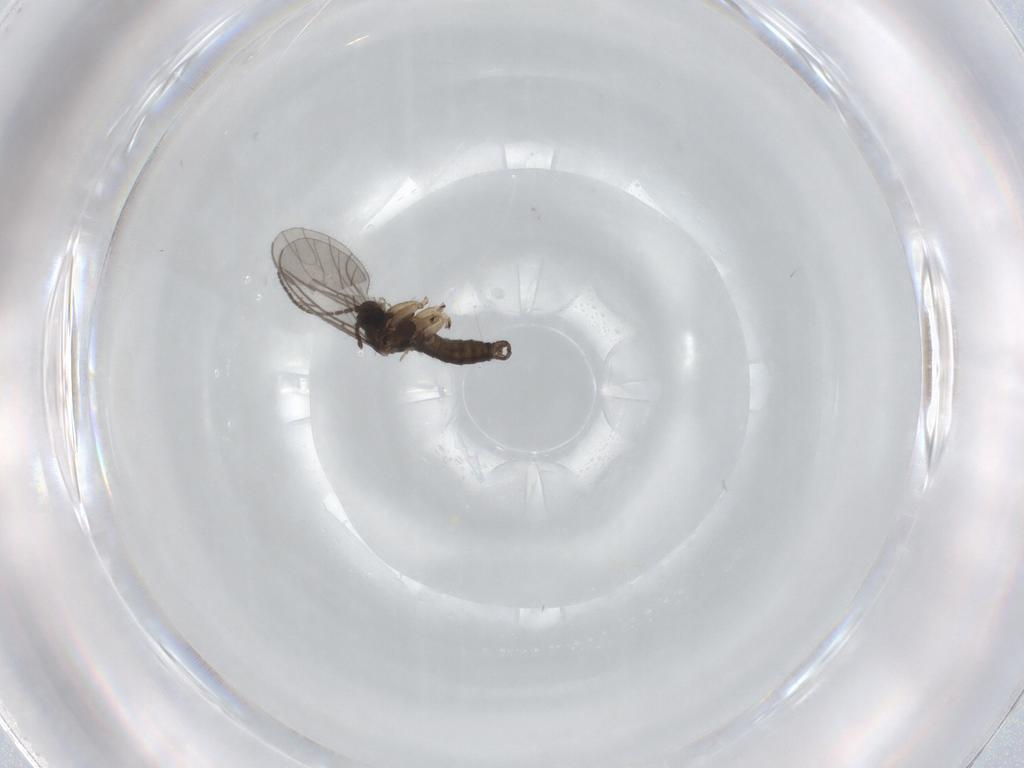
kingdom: Animalia
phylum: Arthropoda
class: Insecta
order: Diptera
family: Sciaridae
